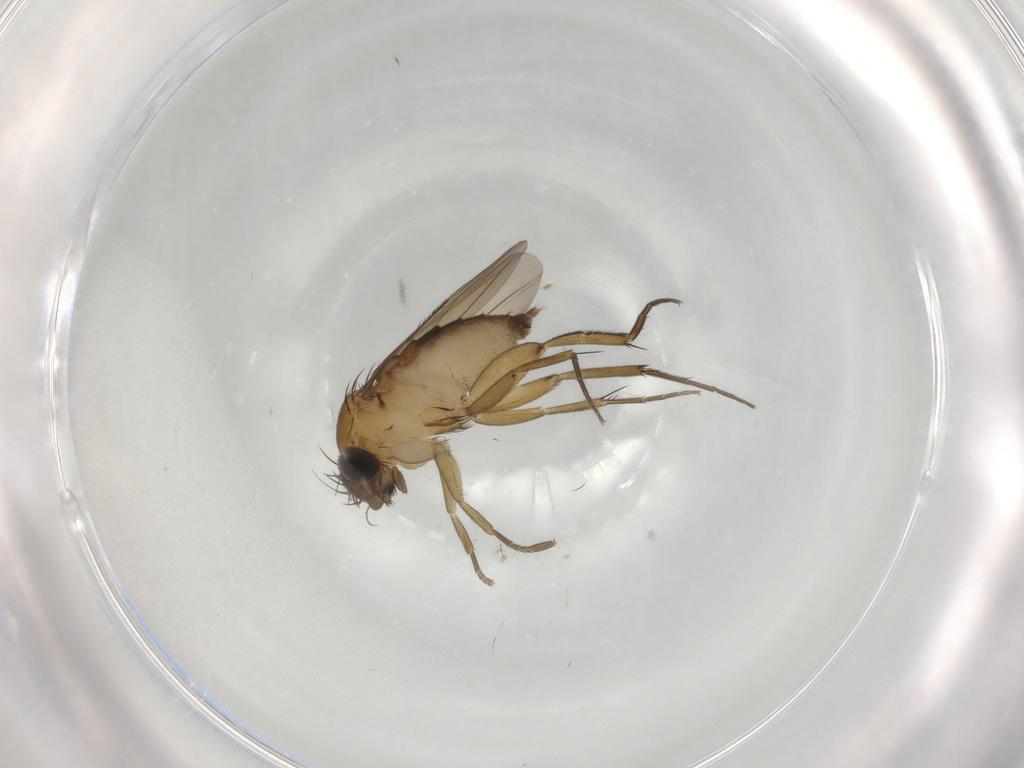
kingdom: Animalia
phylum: Arthropoda
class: Insecta
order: Diptera
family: Phoridae
